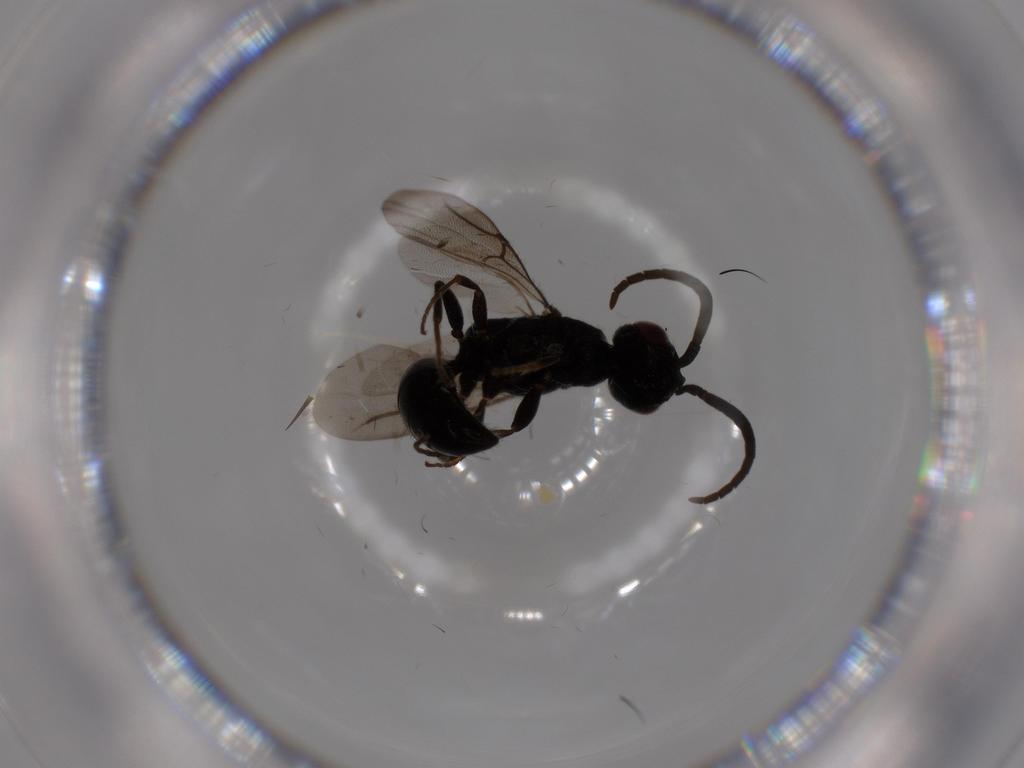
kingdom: Animalia
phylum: Arthropoda
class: Insecta
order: Hymenoptera
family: Bethylidae
